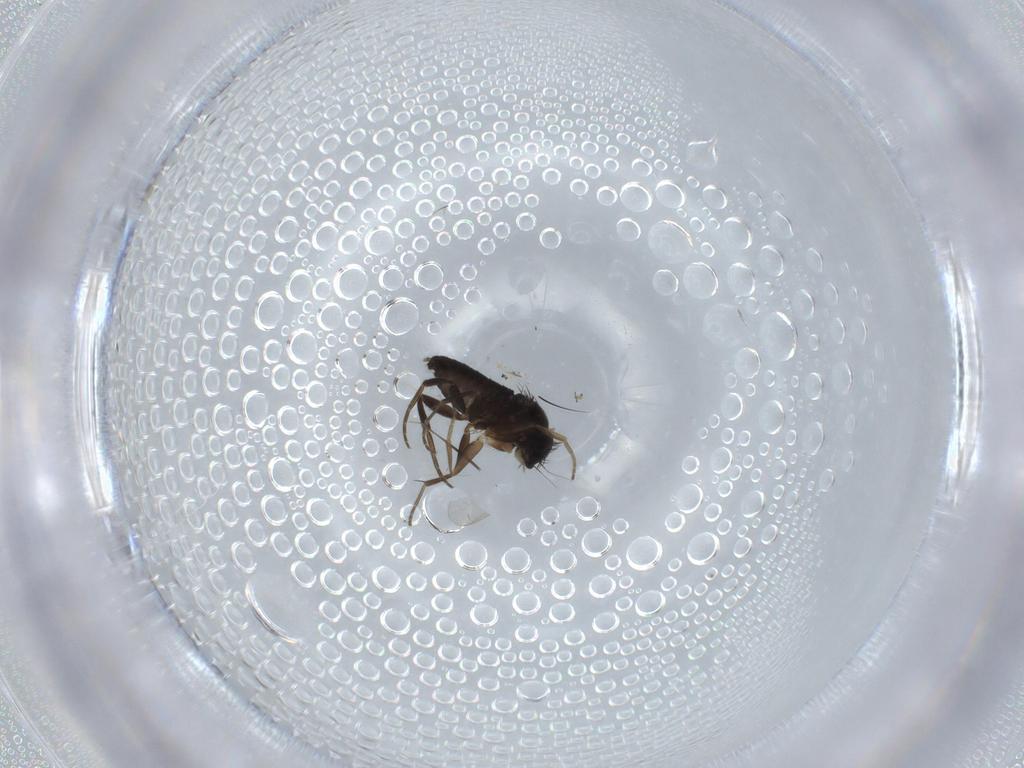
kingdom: Animalia
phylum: Arthropoda
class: Insecta
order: Diptera
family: Phoridae
